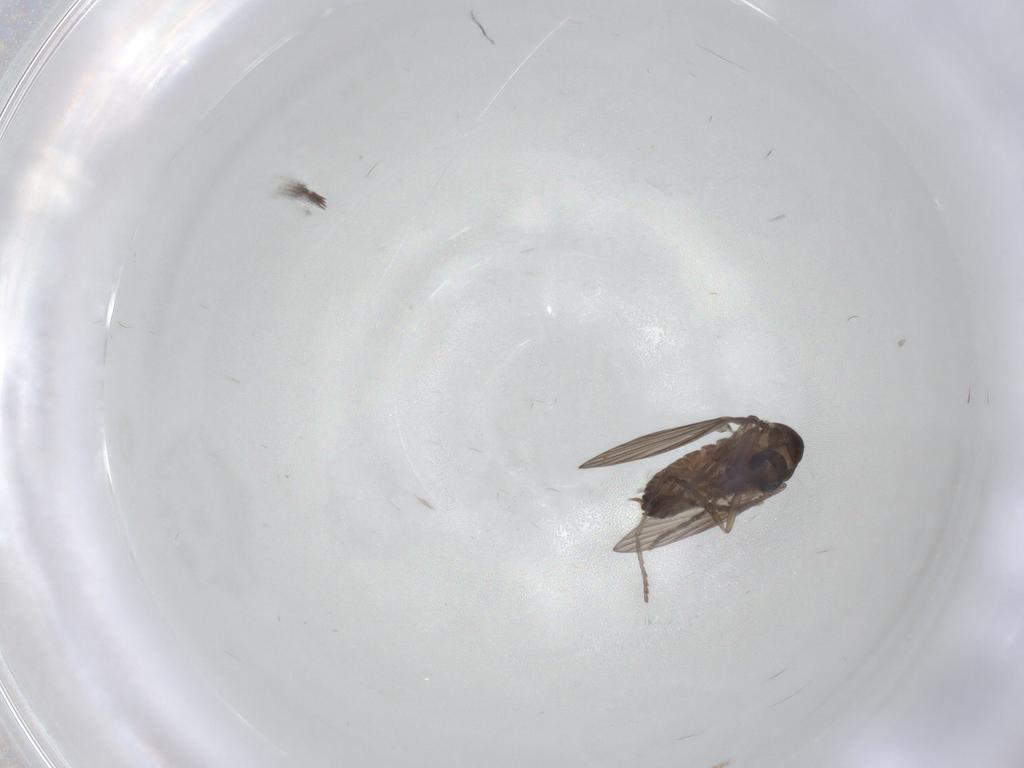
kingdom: Animalia
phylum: Arthropoda
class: Insecta
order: Diptera
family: Psychodidae
